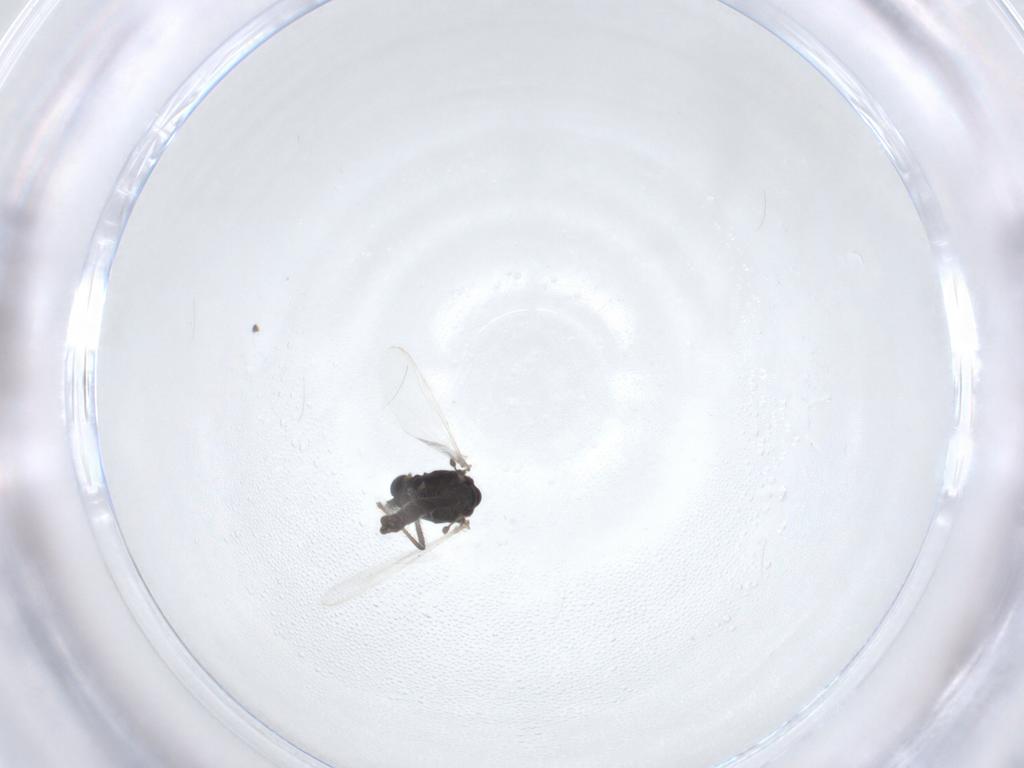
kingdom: Animalia
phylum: Arthropoda
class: Insecta
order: Diptera
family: Chironomidae
